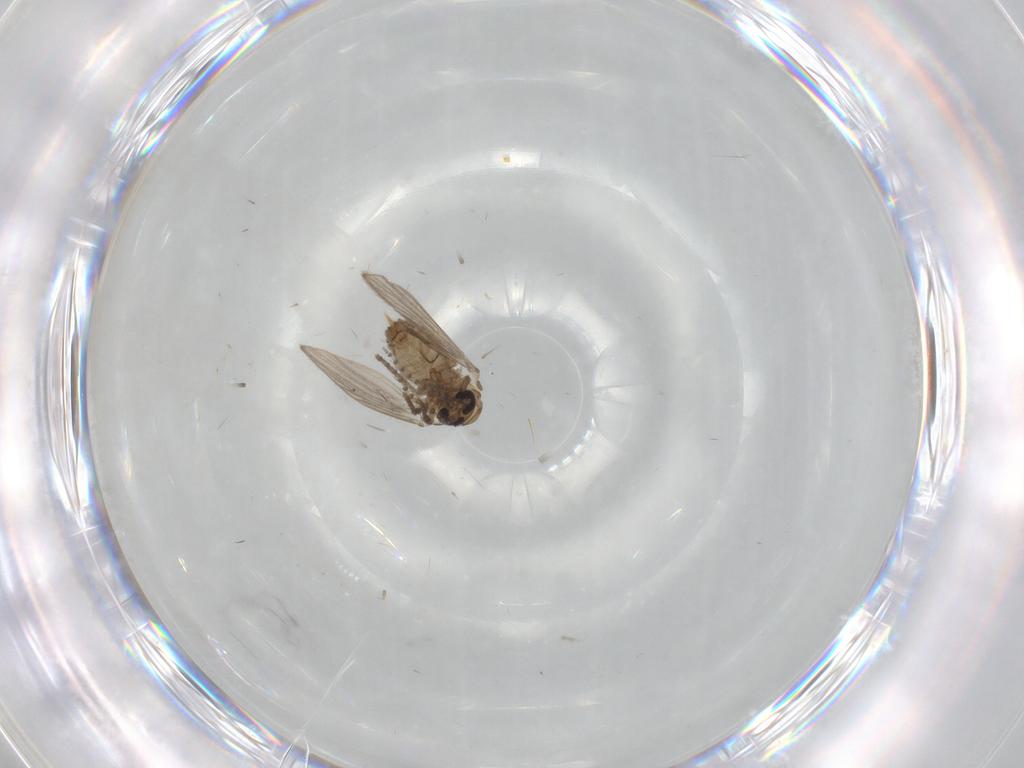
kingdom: Animalia
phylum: Arthropoda
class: Insecta
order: Diptera
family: Psychodidae
